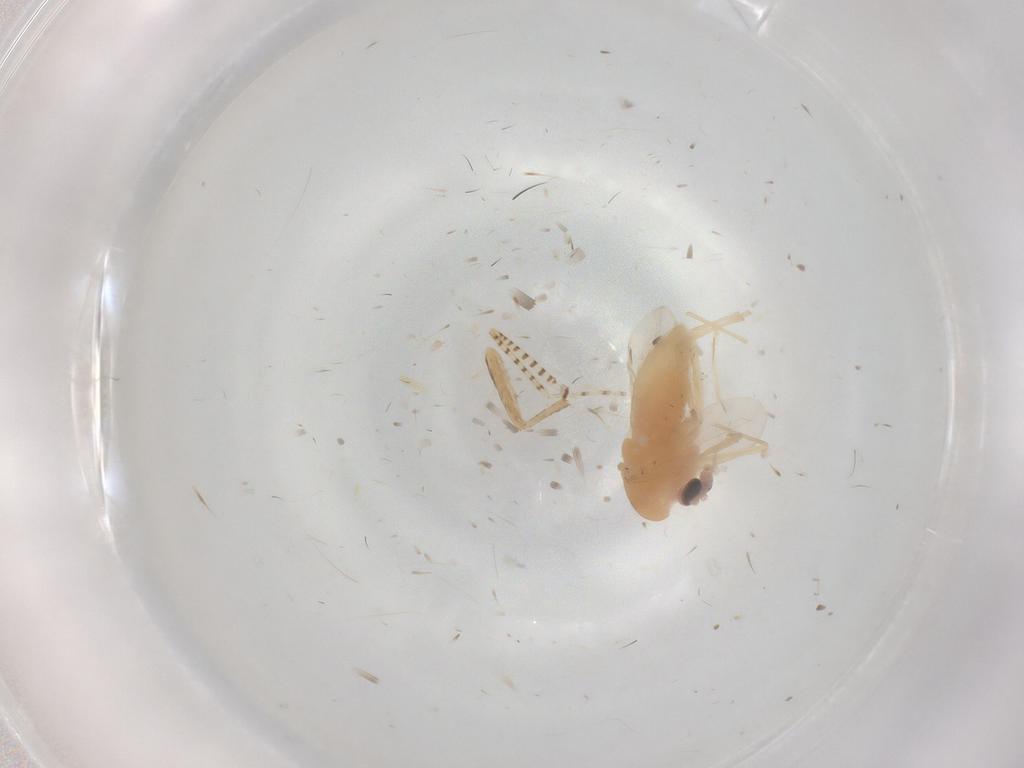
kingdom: Animalia
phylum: Arthropoda
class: Insecta
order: Diptera
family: Chironomidae
